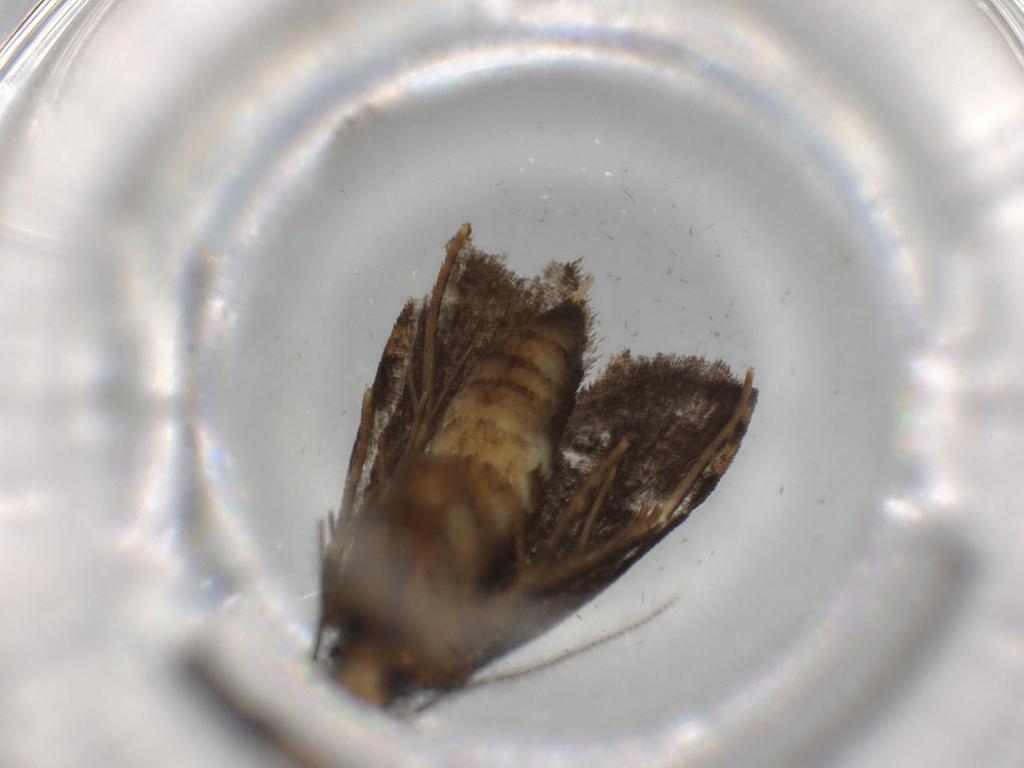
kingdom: Animalia
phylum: Arthropoda
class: Insecta
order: Lepidoptera
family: Tineidae
